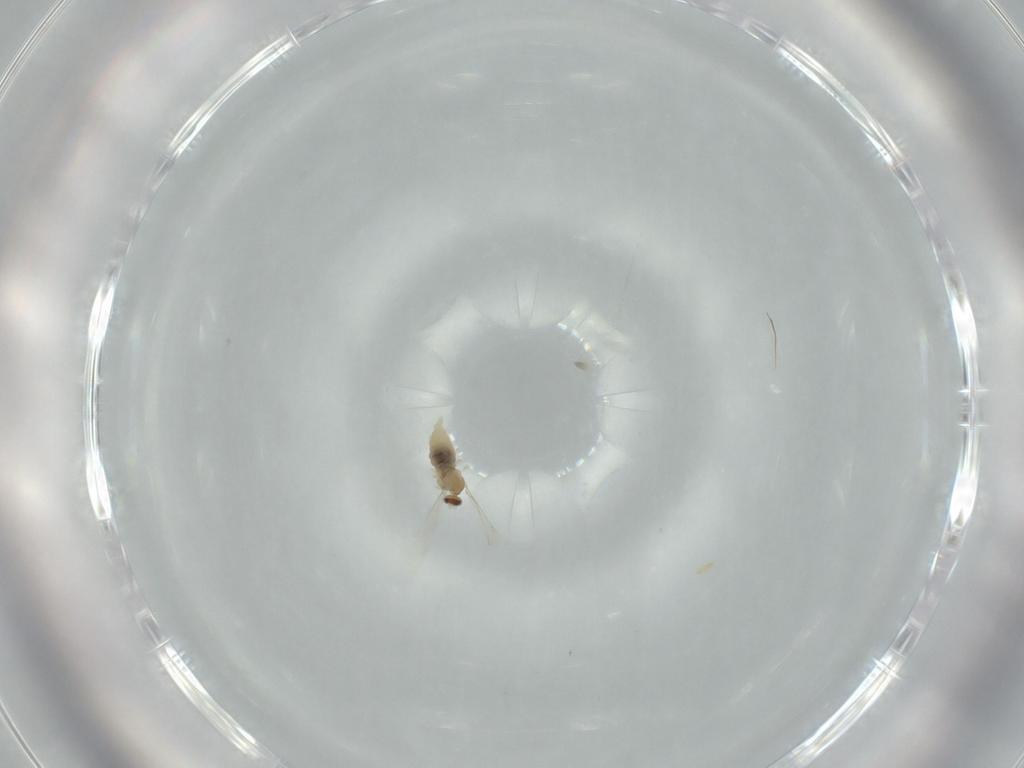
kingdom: Animalia
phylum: Arthropoda
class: Insecta
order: Diptera
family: Cecidomyiidae
